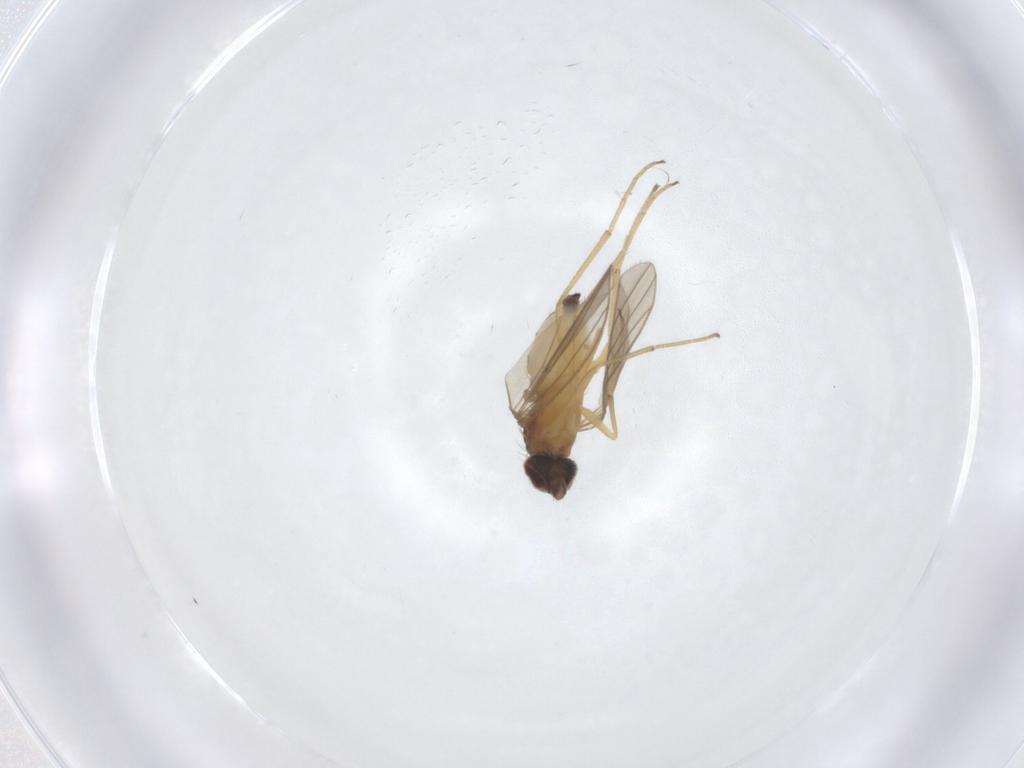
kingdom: Animalia
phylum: Arthropoda
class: Insecta
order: Diptera
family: Dolichopodidae
